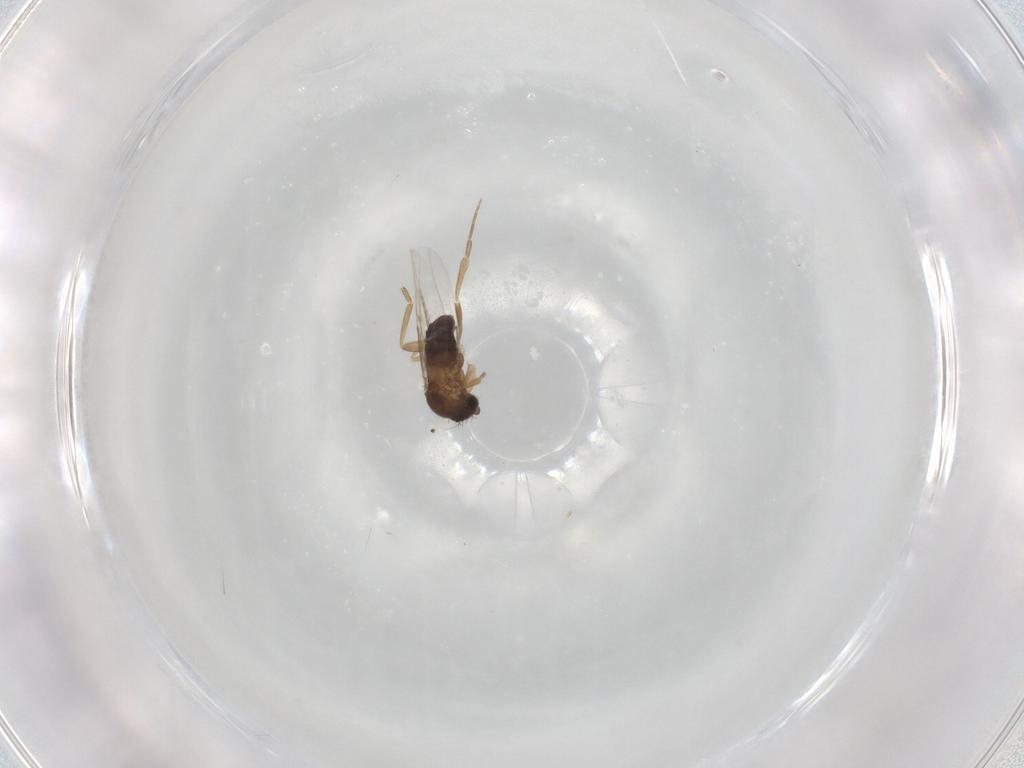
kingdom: Animalia
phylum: Arthropoda
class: Insecta
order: Diptera
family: Phoridae
